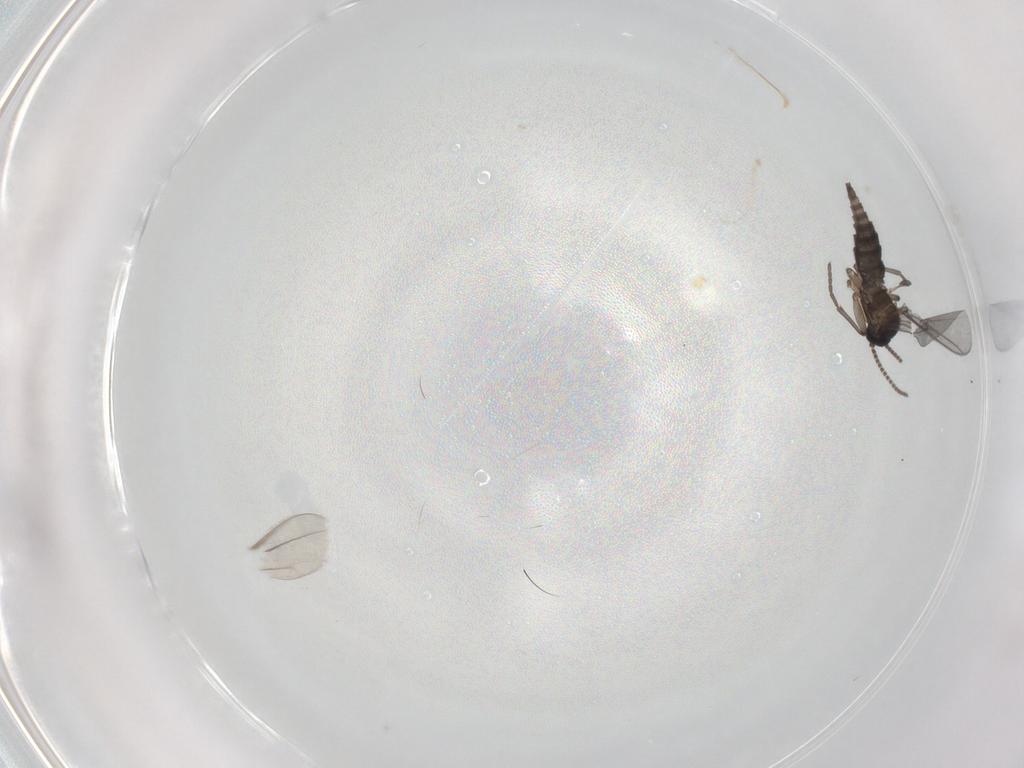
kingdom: Animalia
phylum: Arthropoda
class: Insecta
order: Diptera
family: Sciaridae
